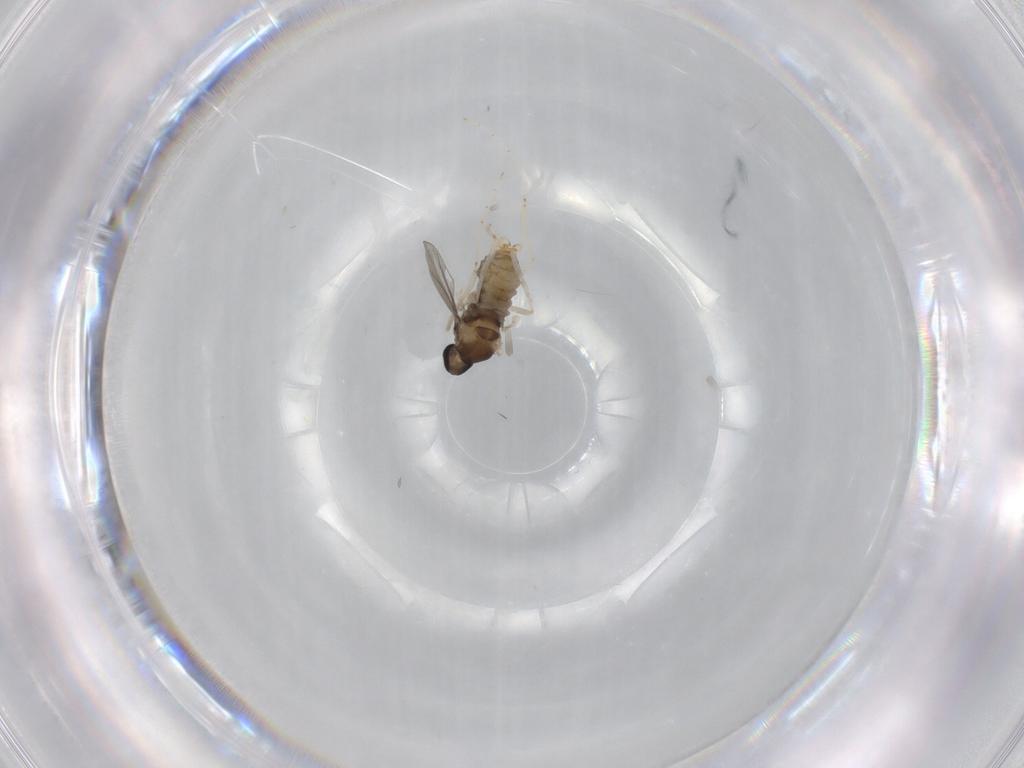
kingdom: Animalia
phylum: Arthropoda
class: Insecta
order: Diptera
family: Cecidomyiidae
